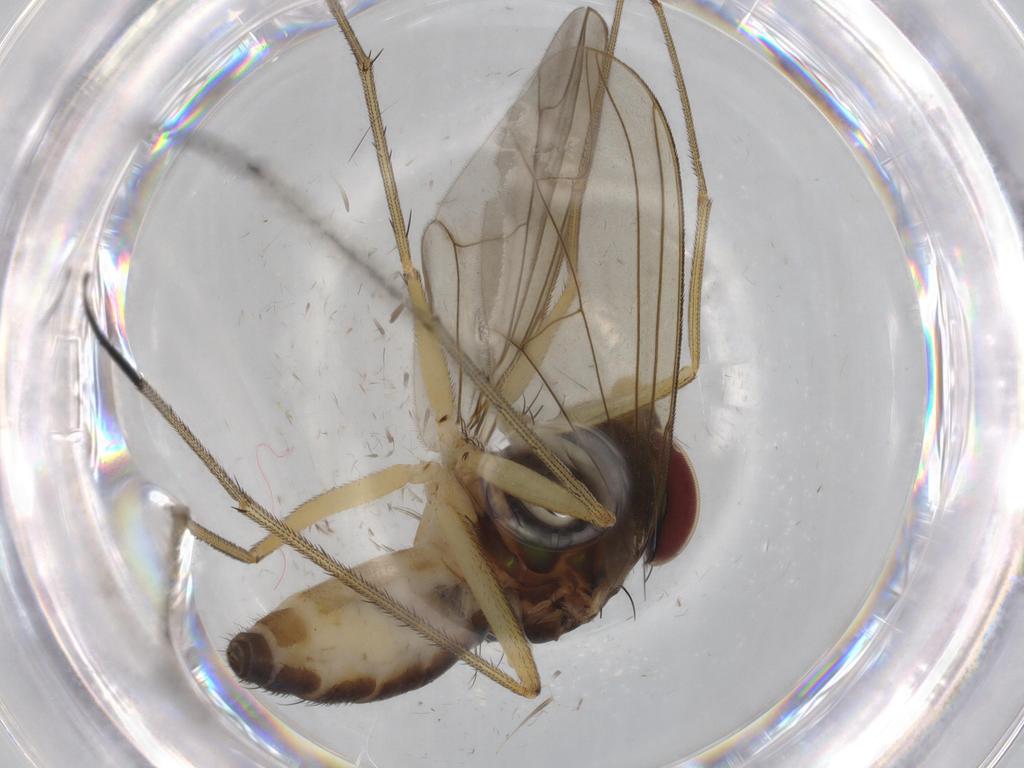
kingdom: Animalia
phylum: Arthropoda
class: Insecta
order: Diptera
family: Dolichopodidae
